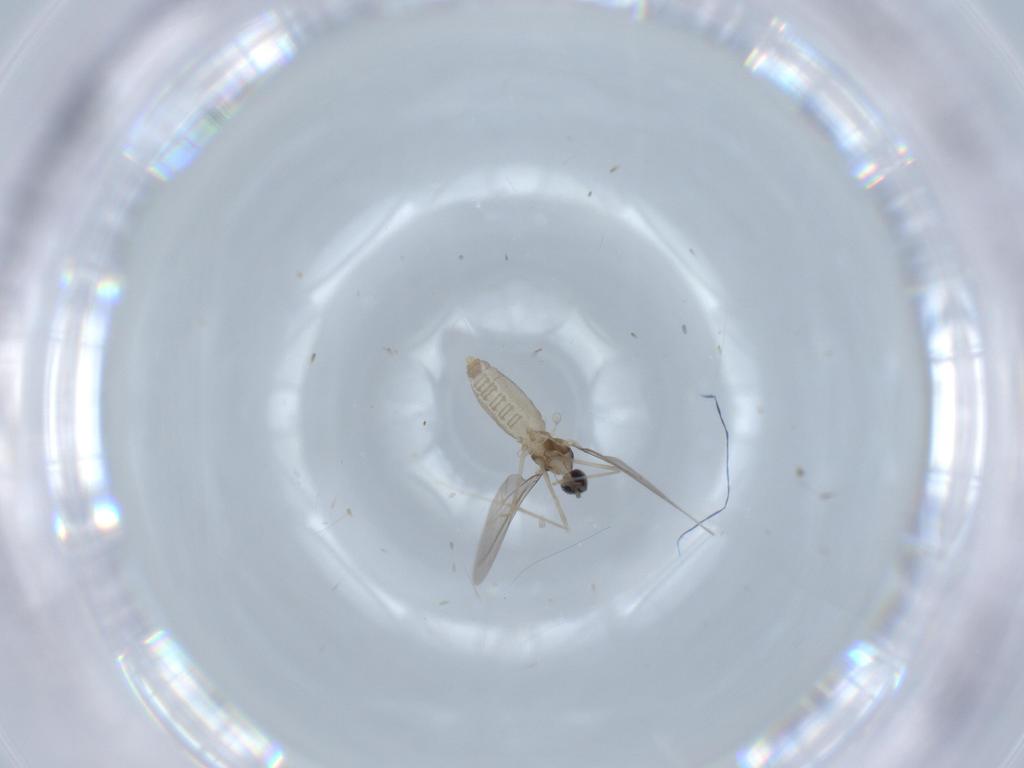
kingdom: Animalia
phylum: Arthropoda
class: Insecta
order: Diptera
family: Cecidomyiidae
